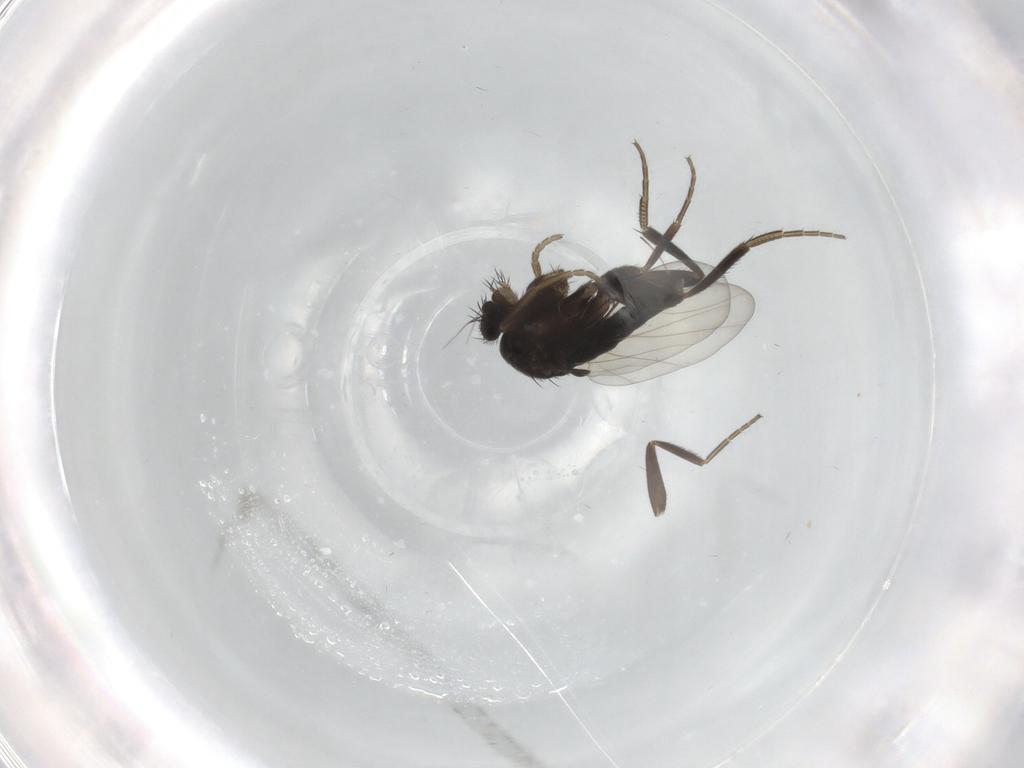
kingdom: Animalia
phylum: Arthropoda
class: Insecta
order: Diptera
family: Phoridae
